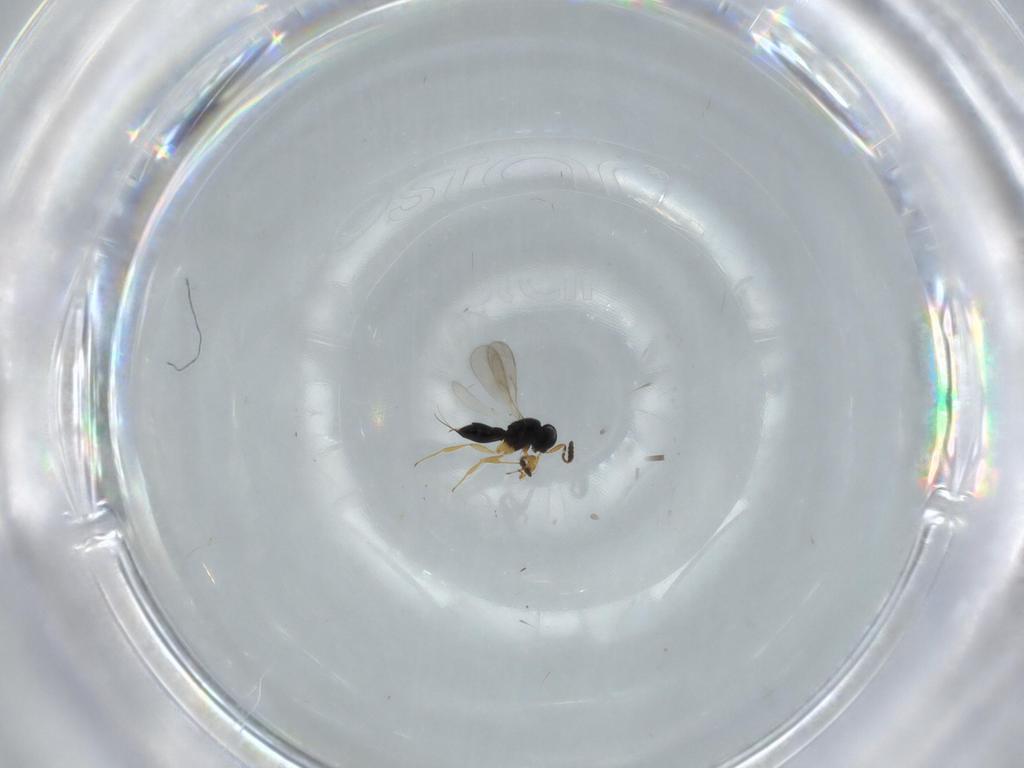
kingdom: Animalia
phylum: Arthropoda
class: Insecta
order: Hymenoptera
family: Scelionidae
